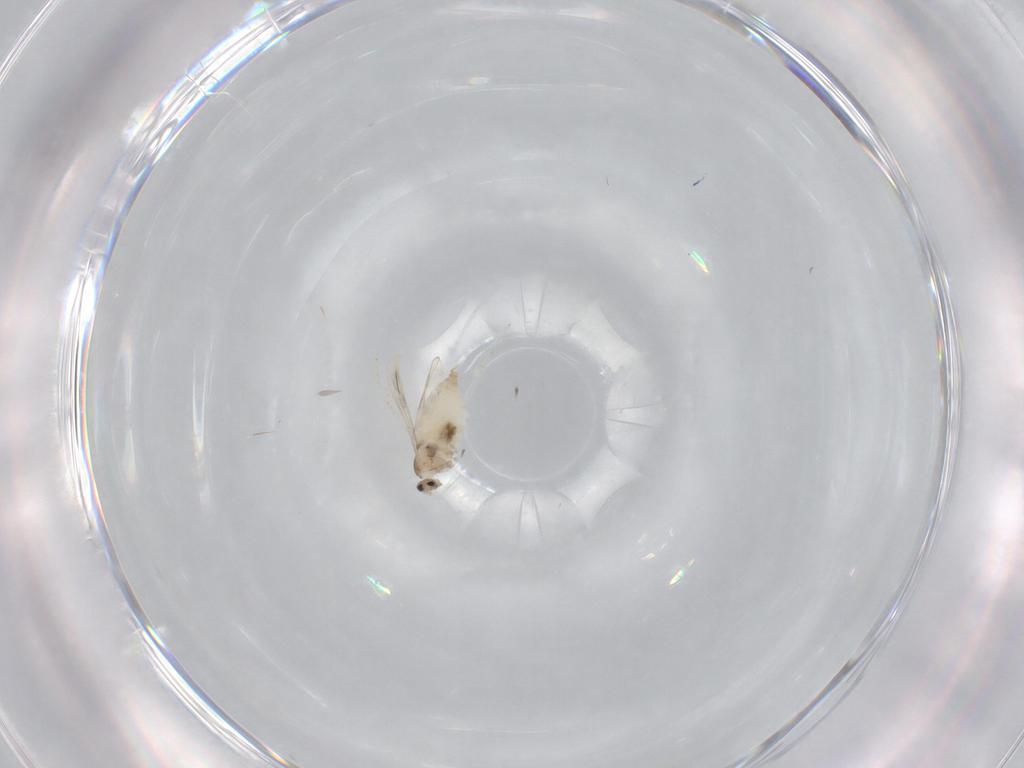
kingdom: Animalia
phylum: Arthropoda
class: Insecta
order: Diptera
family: Cecidomyiidae
